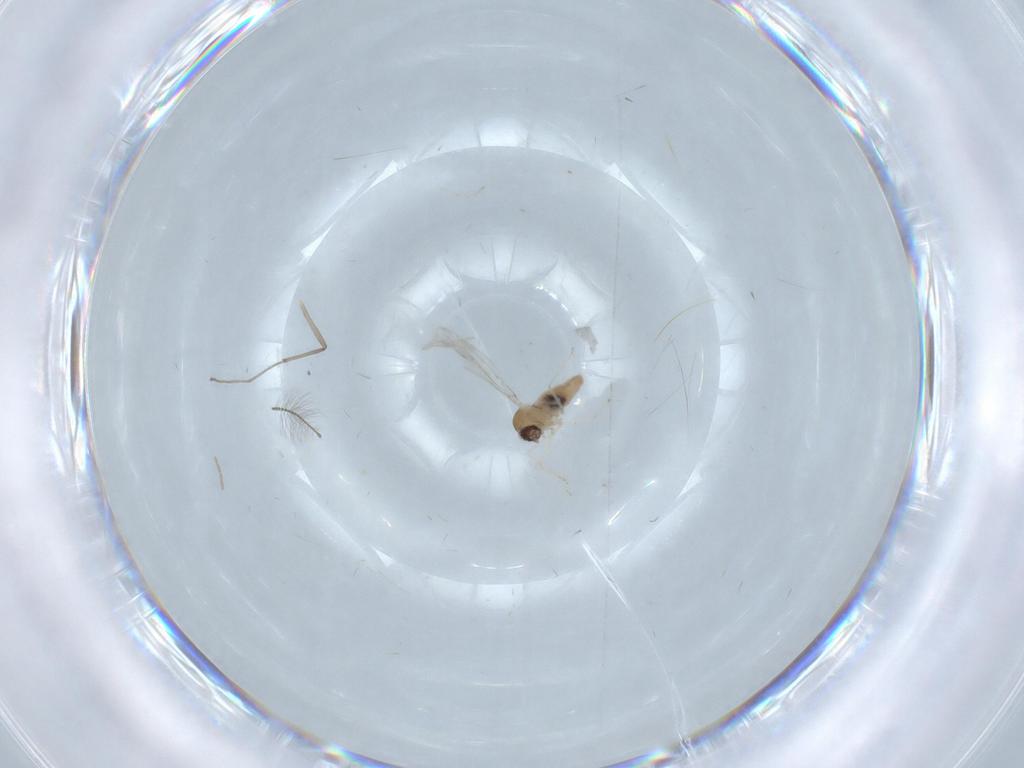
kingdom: Animalia
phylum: Arthropoda
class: Insecta
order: Diptera
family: Chironomidae
